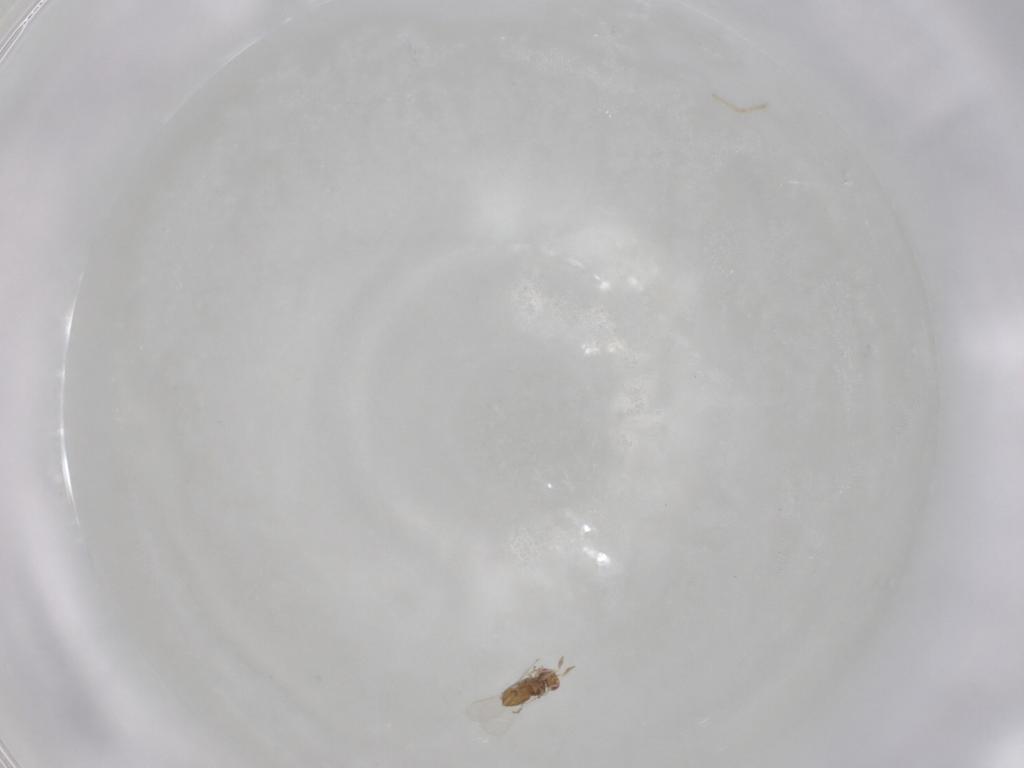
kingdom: Animalia
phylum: Arthropoda
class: Insecta
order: Hymenoptera
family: Trichogrammatidae
